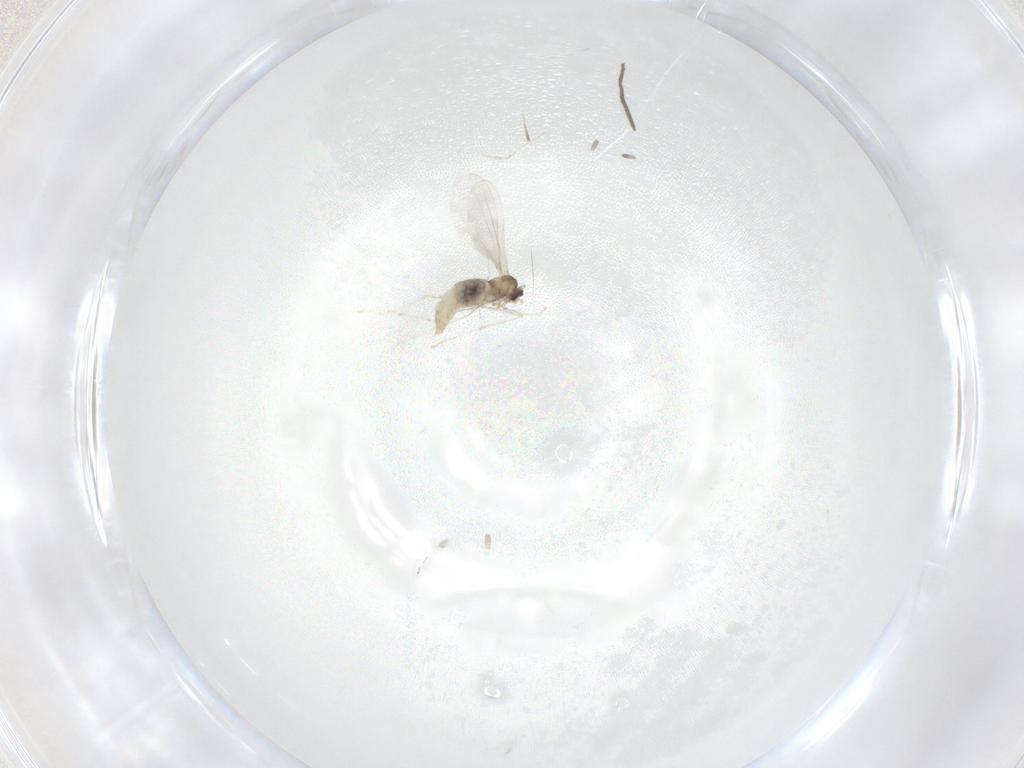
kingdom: Animalia
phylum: Arthropoda
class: Insecta
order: Diptera
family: Cecidomyiidae
